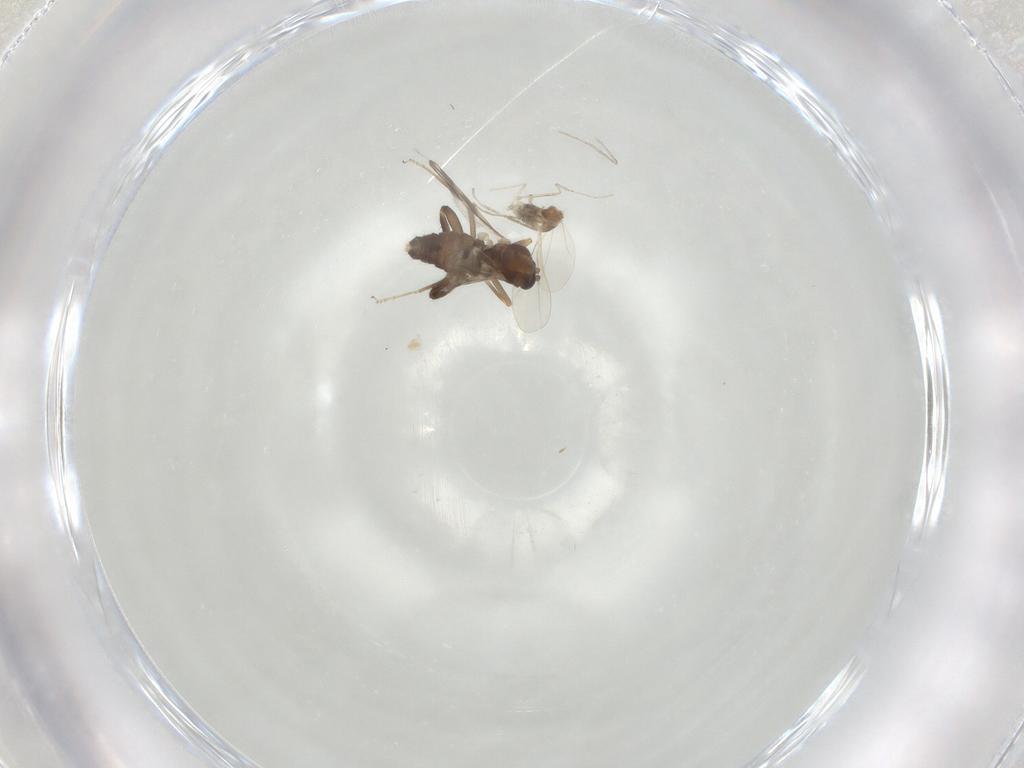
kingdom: Animalia
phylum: Arthropoda
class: Insecta
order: Diptera
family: Ceratopogonidae
